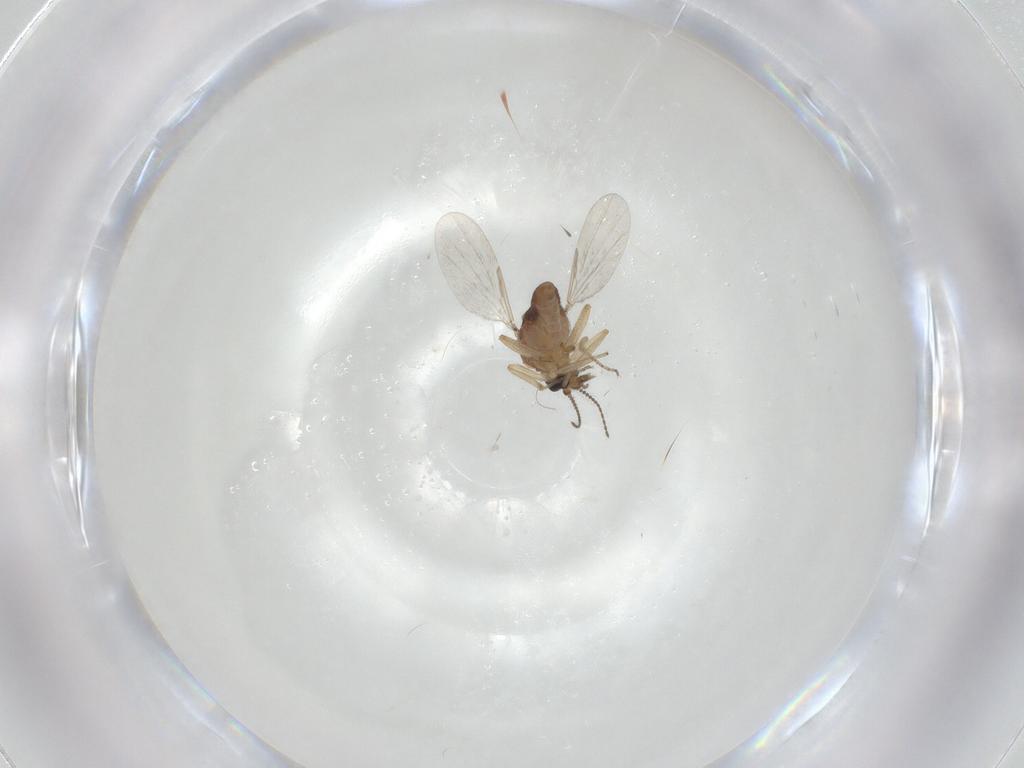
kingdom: Animalia
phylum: Arthropoda
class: Insecta
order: Diptera
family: Ceratopogonidae
